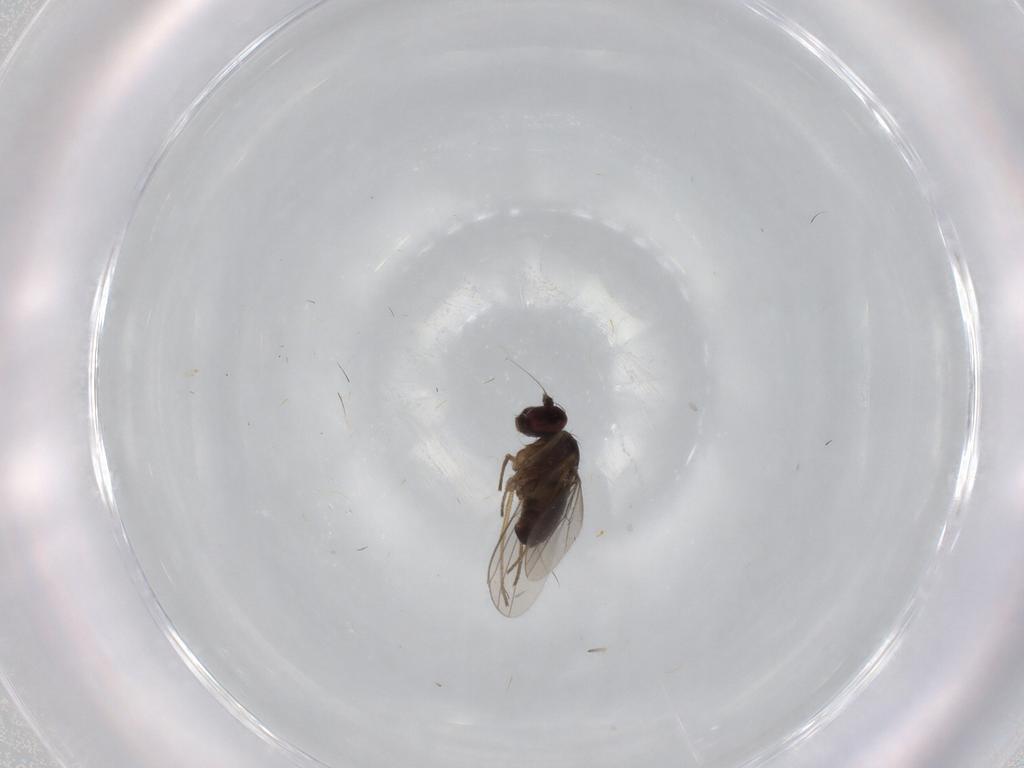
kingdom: Animalia
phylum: Arthropoda
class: Insecta
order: Diptera
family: Dolichopodidae
